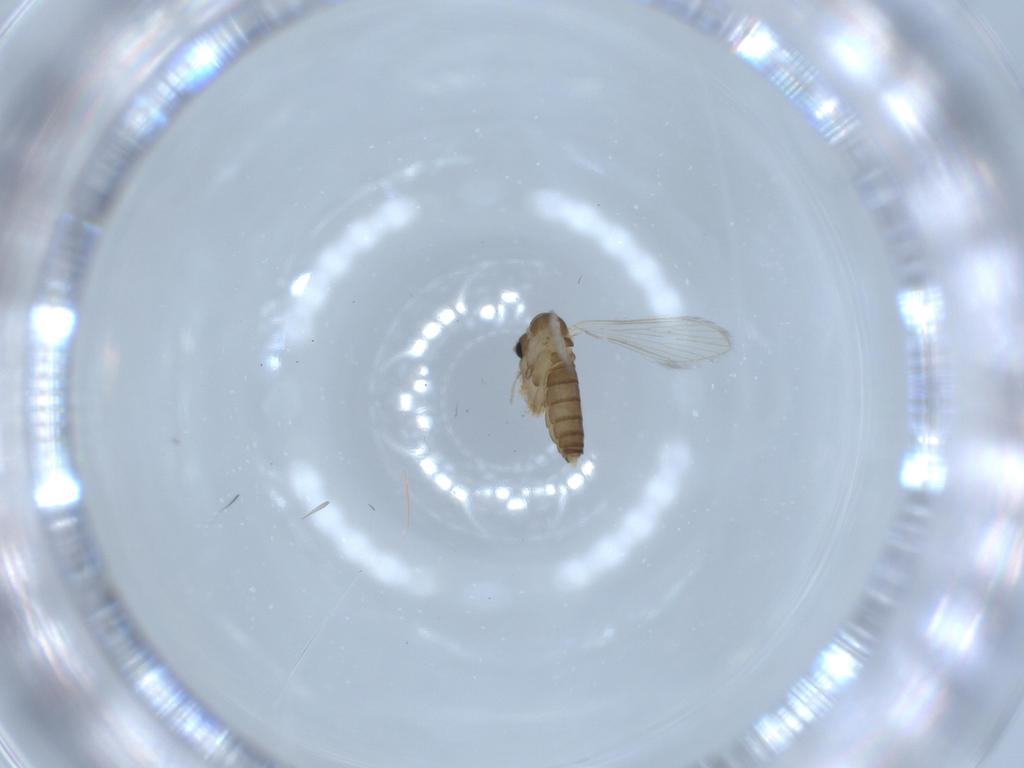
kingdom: Animalia
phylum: Arthropoda
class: Insecta
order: Diptera
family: Psychodidae
